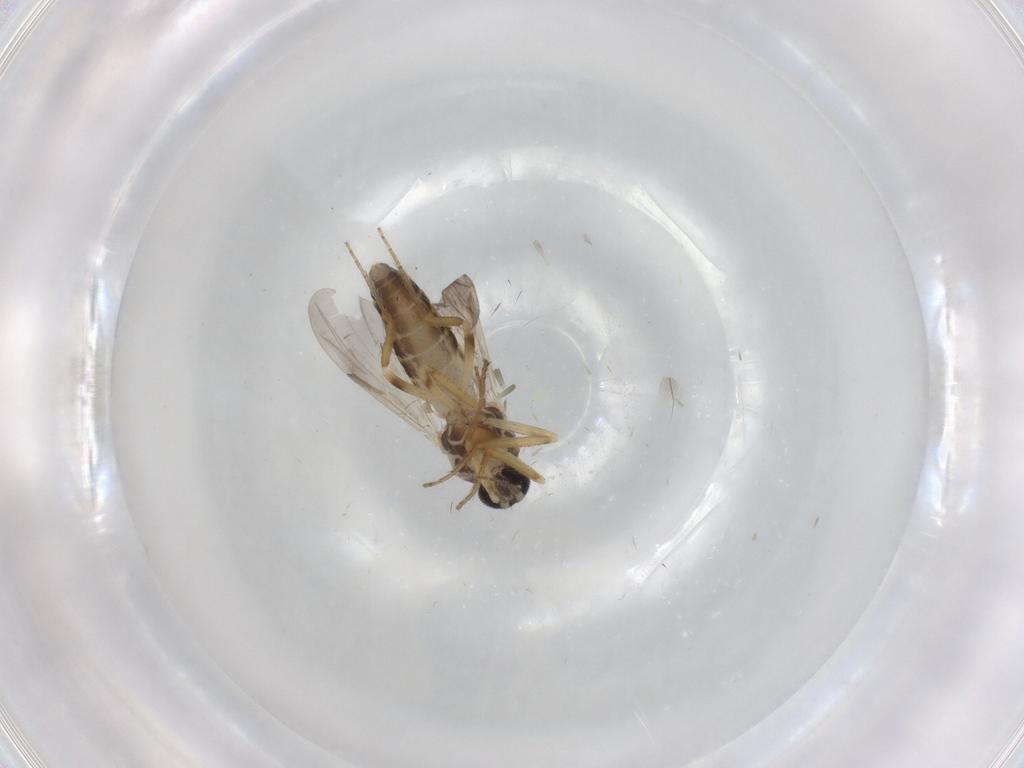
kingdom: Animalia
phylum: Arthropoda
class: Insecta
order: Diptera
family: Ceratopogonidae
